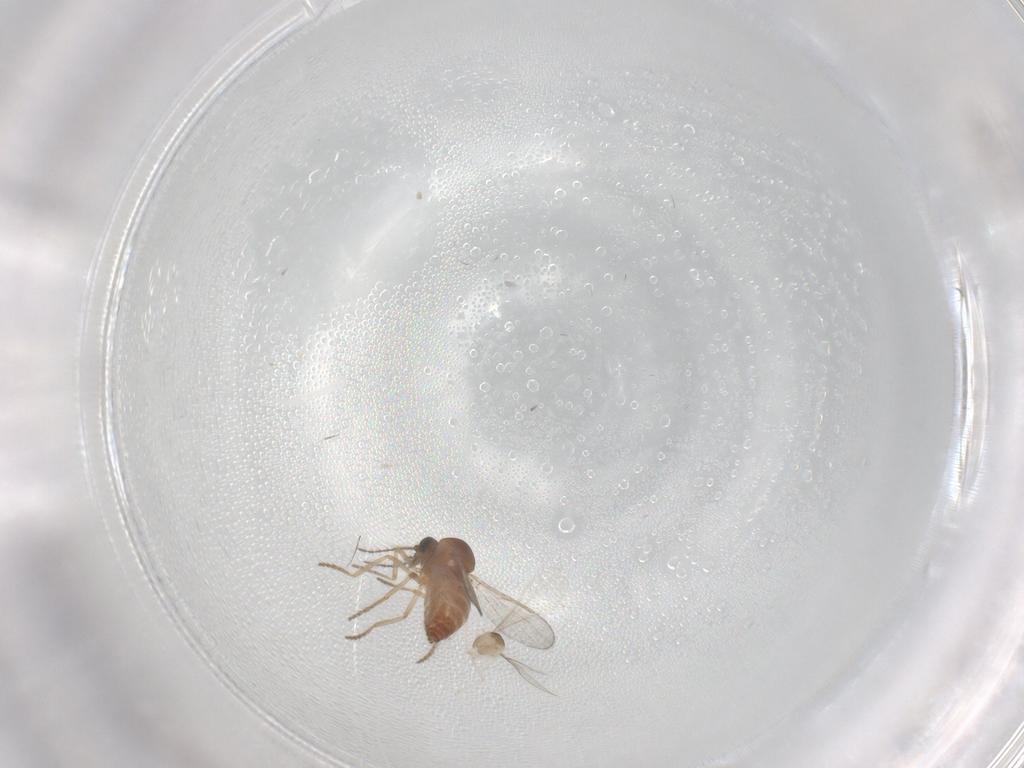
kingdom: Animalia
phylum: Arthropoda
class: Insecta
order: Diptera
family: Ceratopogonidae
